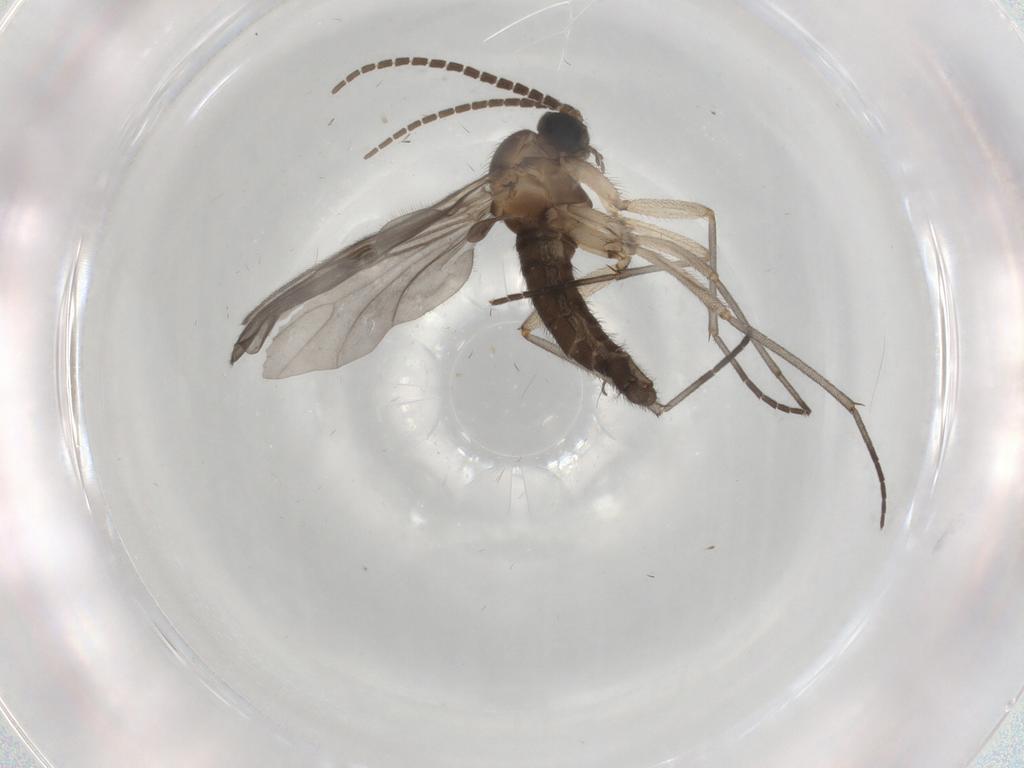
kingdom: Animalia
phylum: Arthropoda
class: Insecta
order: Diptera
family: Sciaridae
